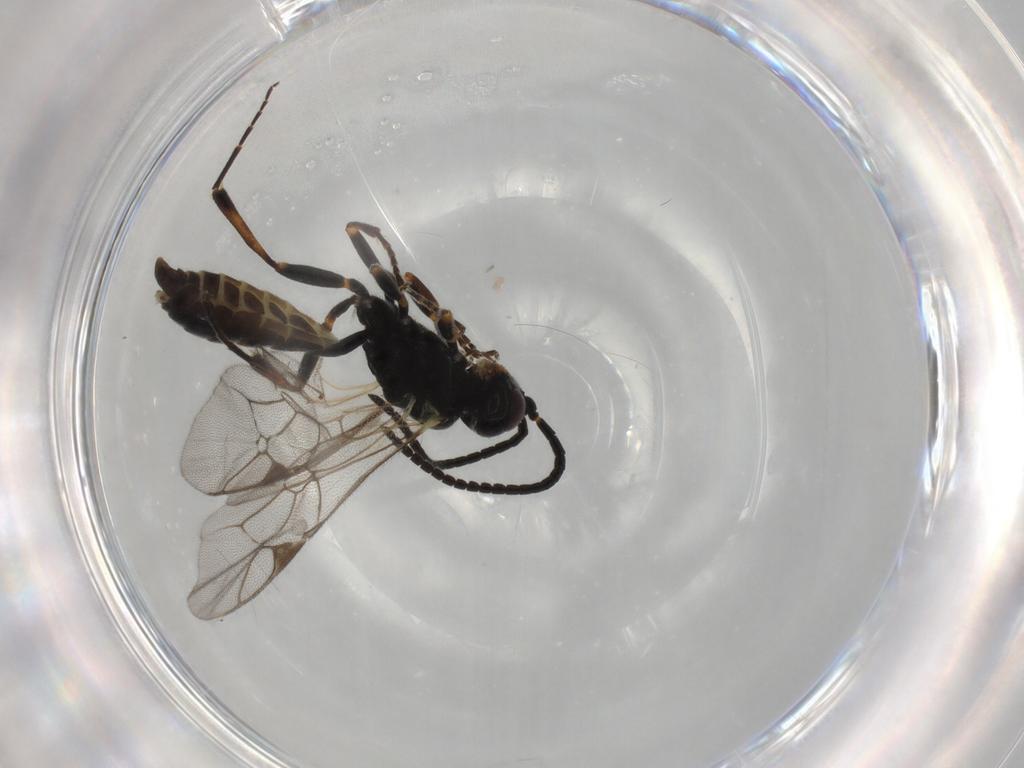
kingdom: Animalia
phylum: Arthropoda
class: Insecta
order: Hymenoptera
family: Ichneumonidae
